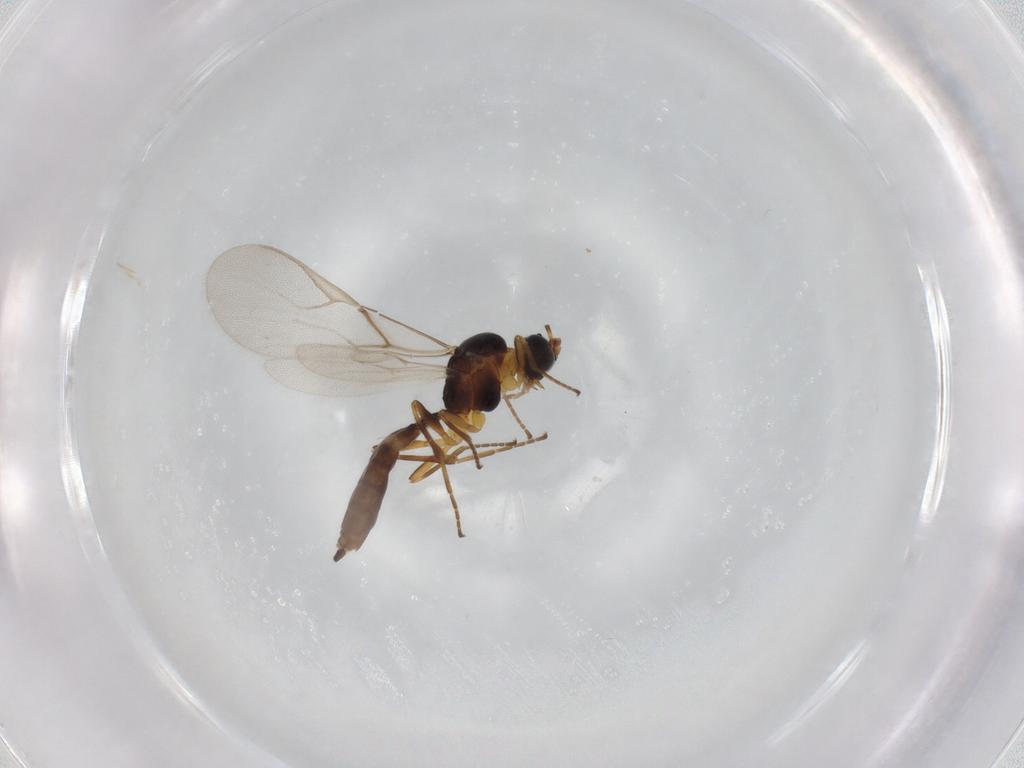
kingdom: Animalia
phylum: Arthropoda
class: Insecta
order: Hymenoptera
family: Braconidae
